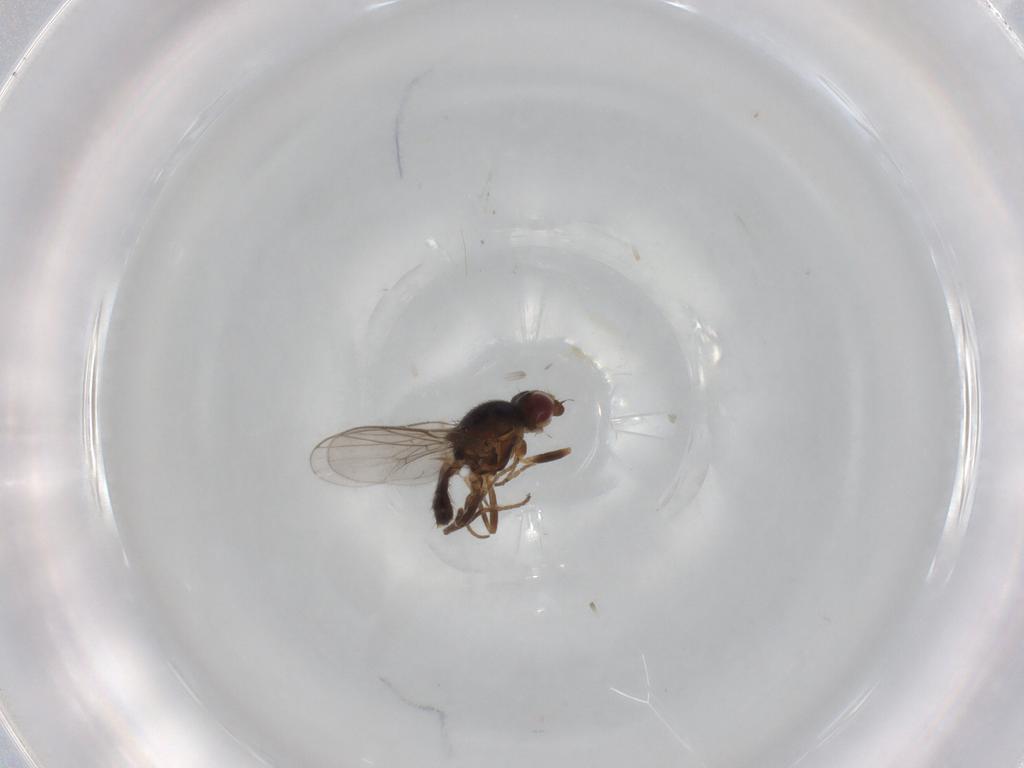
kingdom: Animalia
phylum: Arthropoda
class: Insecta
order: Diptera
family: Chloropidae
